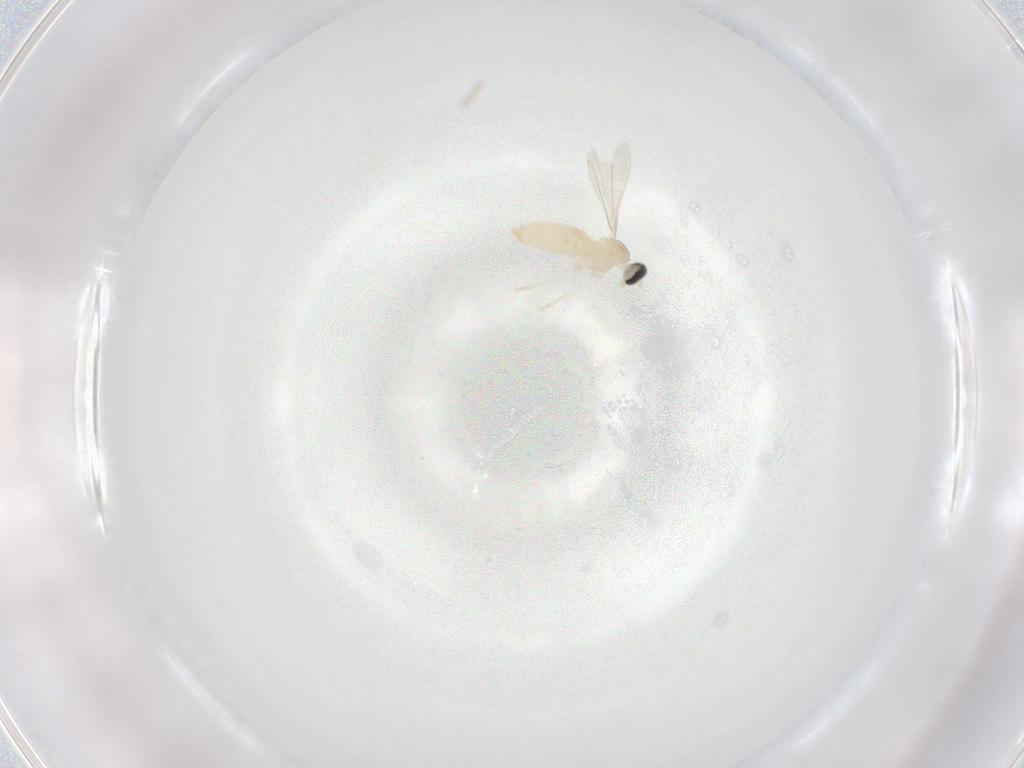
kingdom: Animalia
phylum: Arthropoda
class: Insecta
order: Diptera
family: Cecidomyiidae
